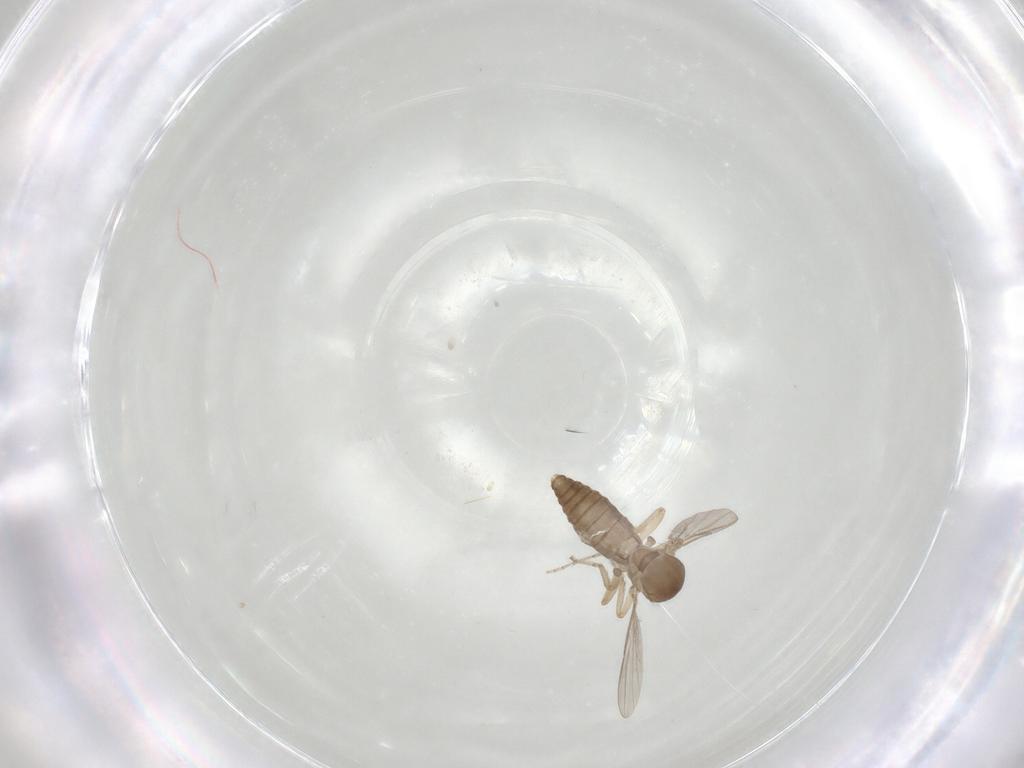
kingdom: Animalia
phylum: Arthropoda
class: Insecta
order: Diptera
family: Ceratopogonidae
